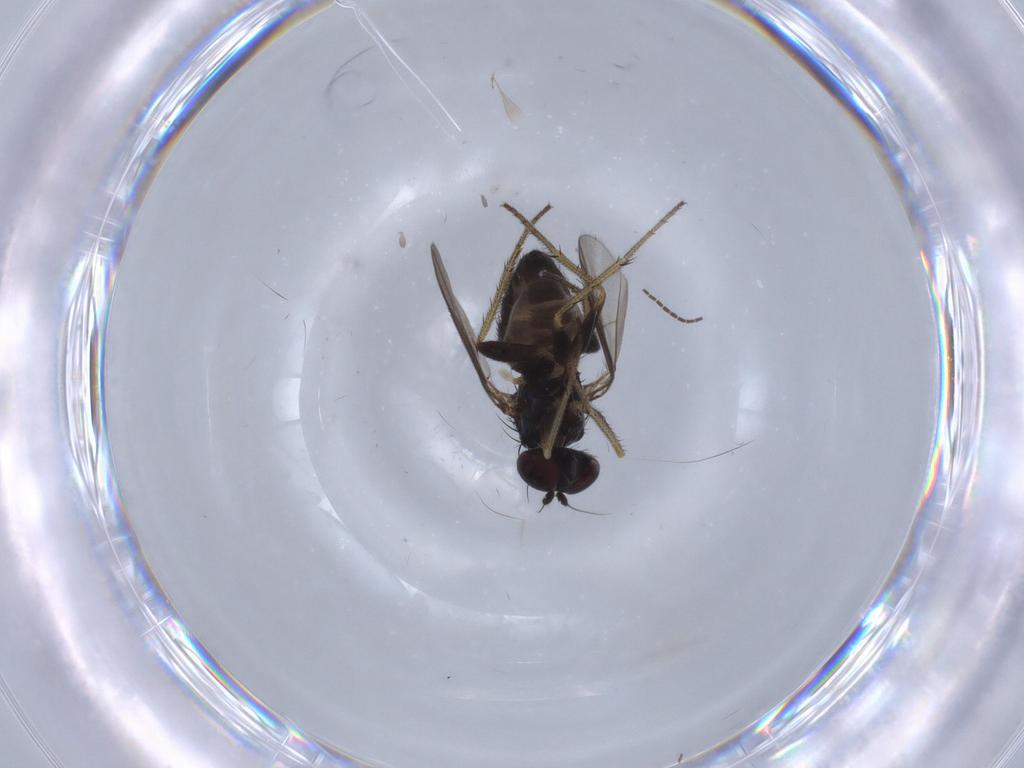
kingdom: Animalia
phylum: Arthropoda
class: Insecta
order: Diptera
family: Sciaridae
